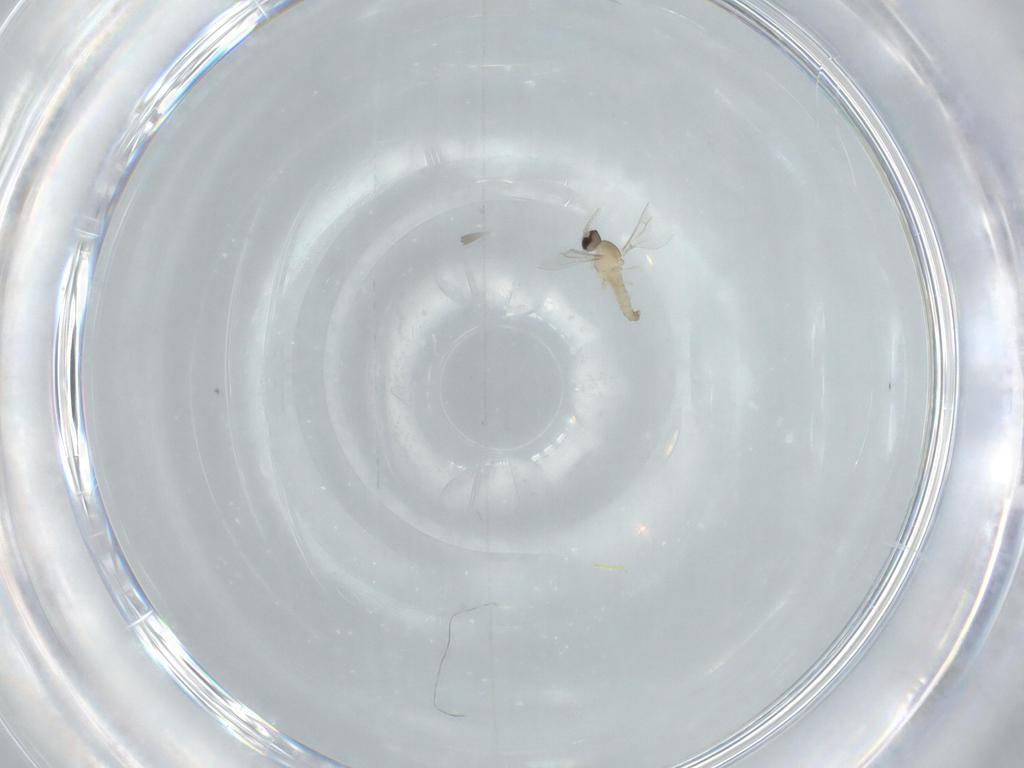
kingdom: Animalia
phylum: Arthropoda
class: Insecta
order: Diptera
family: Cecidomyiidae
